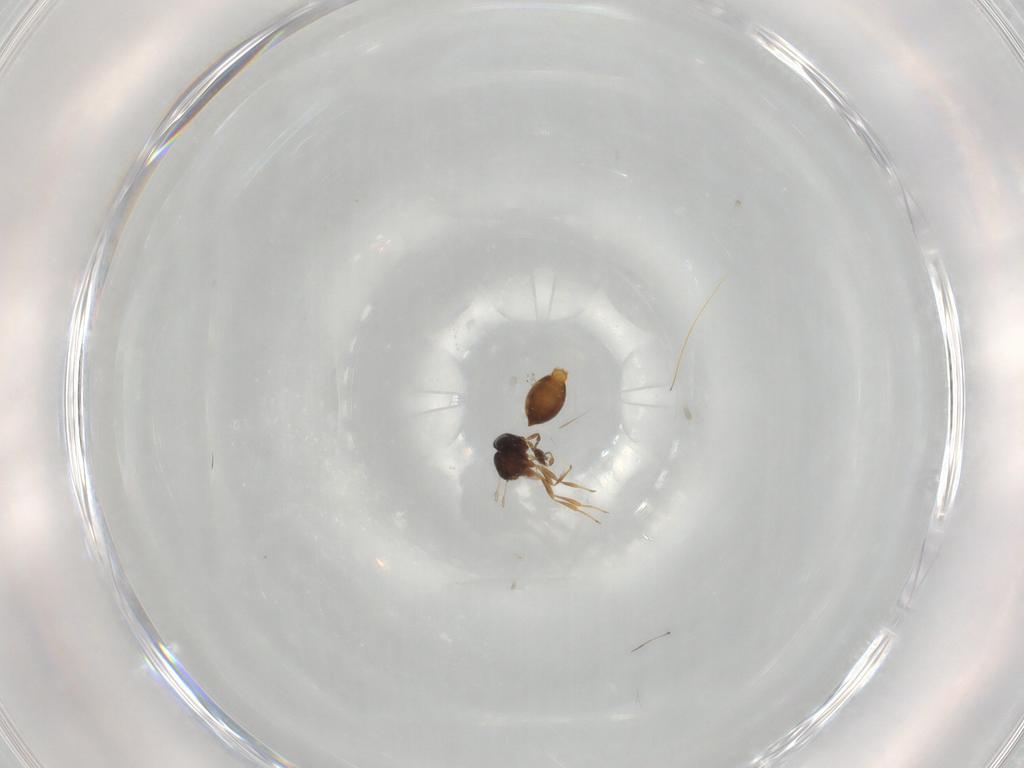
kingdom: Animalia
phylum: Arthropoda
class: Insecta
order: Hymenoptera
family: Scelionidae
